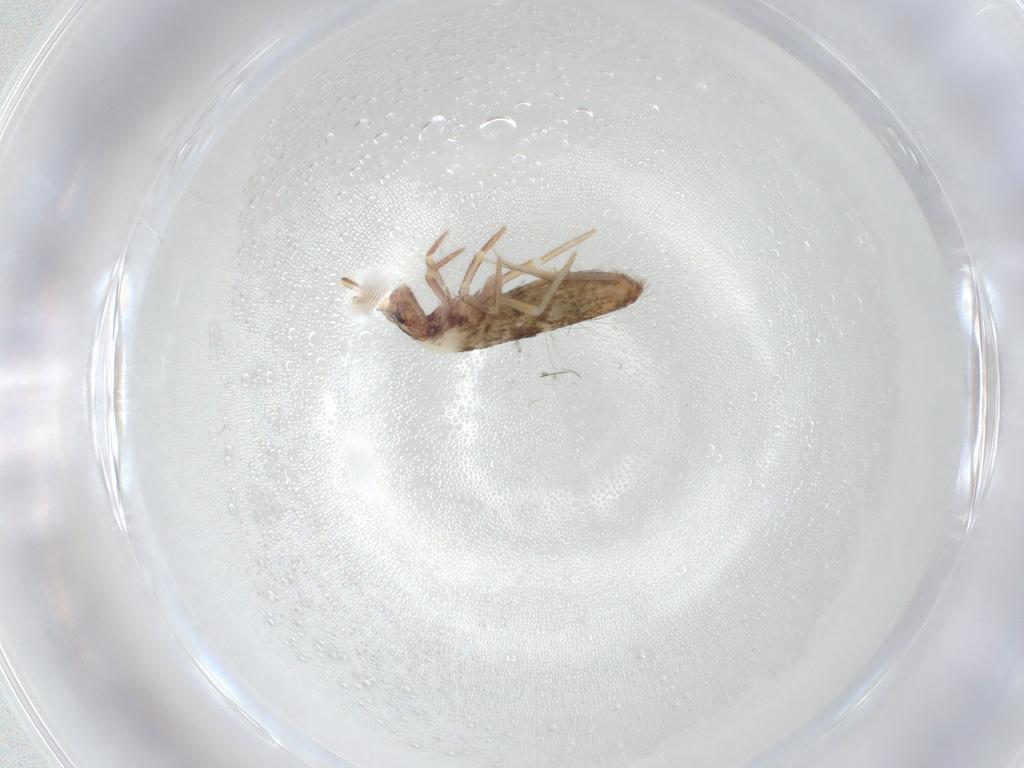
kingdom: Animalia
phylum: Arthropoda
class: Collembola
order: Entomobryomorpha
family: Entomobryidae
